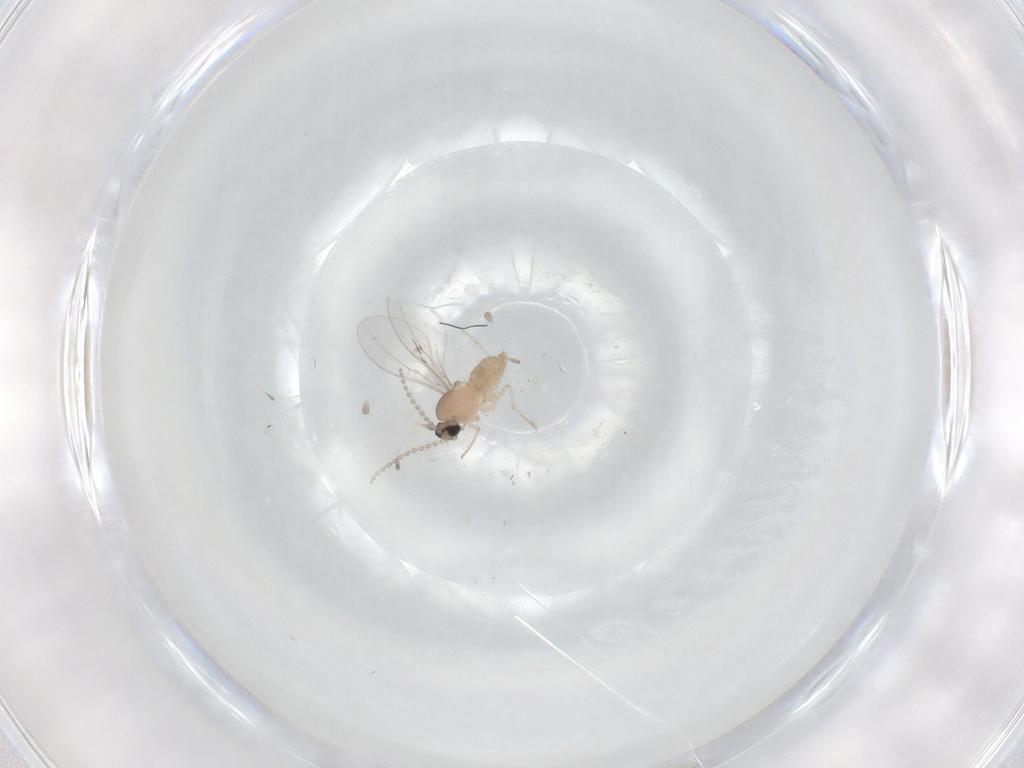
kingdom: Animalia
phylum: Arthropoda
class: Insecta
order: Diptera
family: Cecidomyiidae
